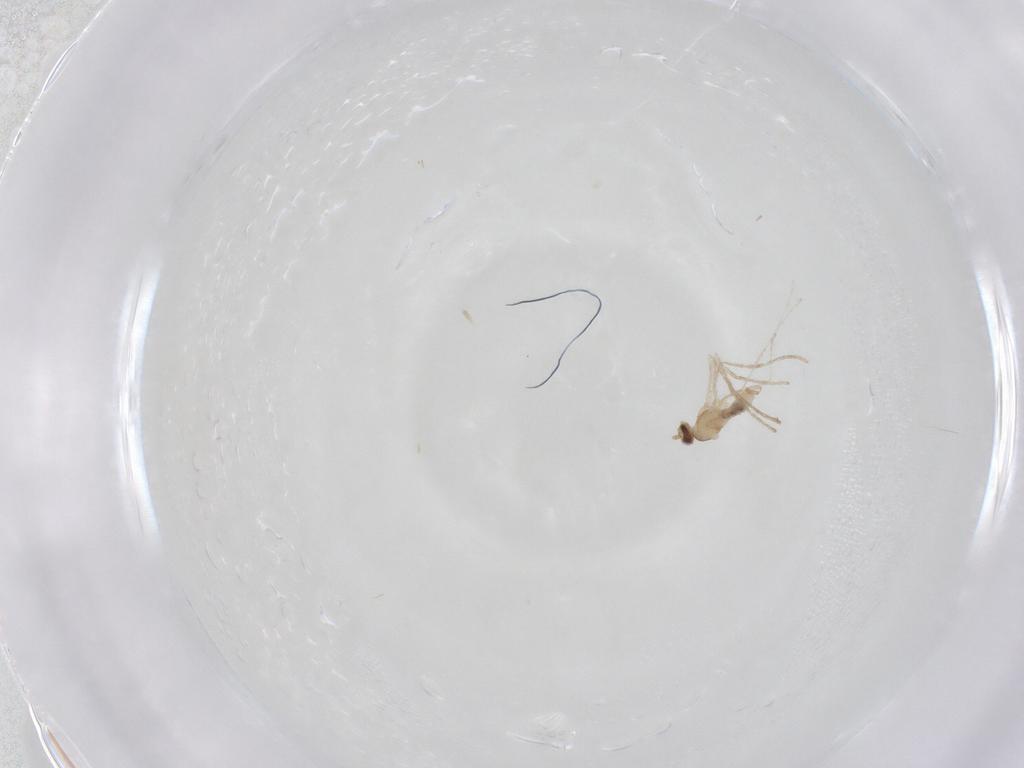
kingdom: Animalia
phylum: Arthropoda
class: Insecta
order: Diptera
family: Cecidomyiidae
